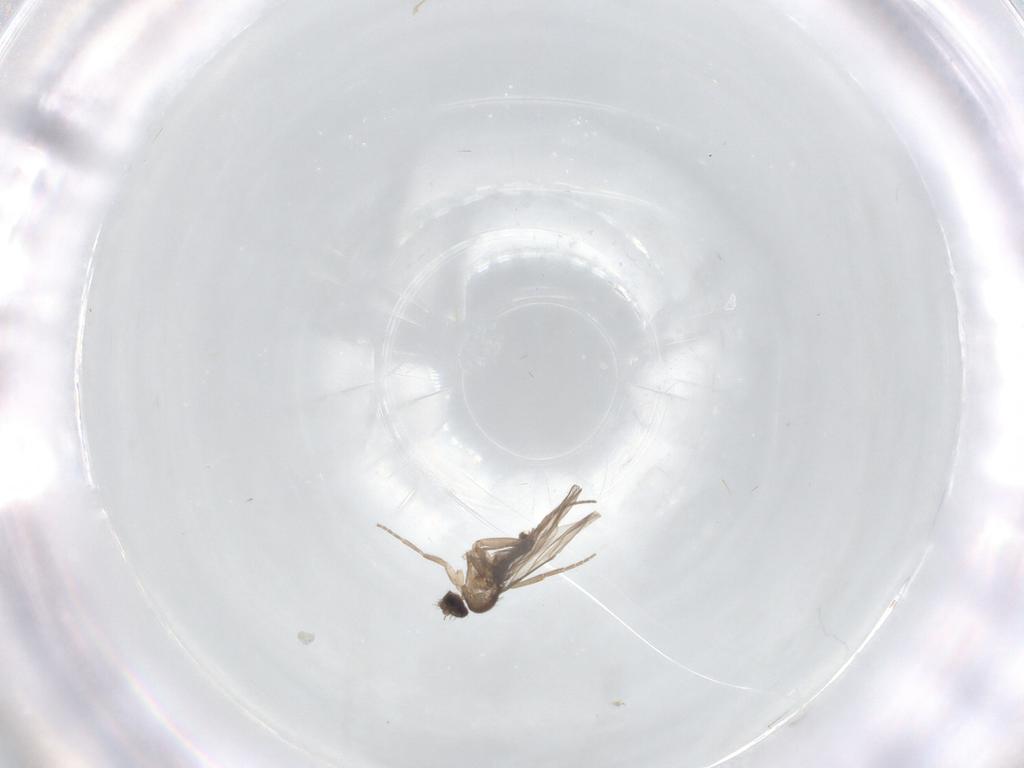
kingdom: Animalia
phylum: Arthropoda
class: Insecta
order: Diptera
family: Phoridae
